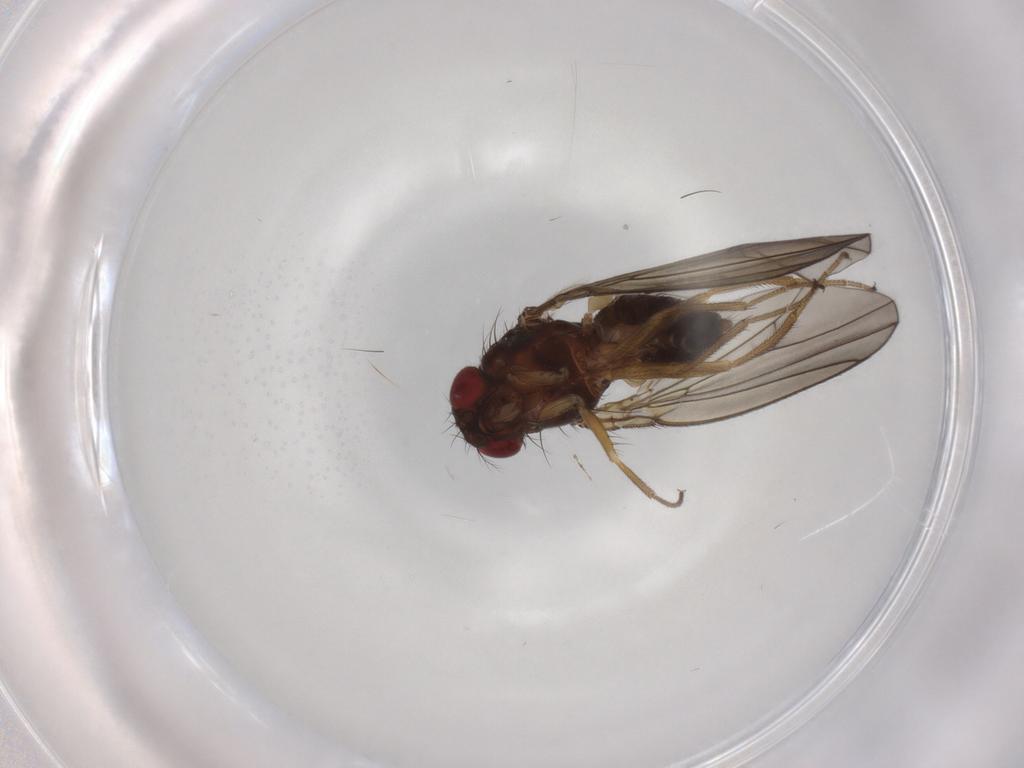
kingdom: Animalia
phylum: Arthropoda
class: Insecta
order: Diptera
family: Drosophilidae
